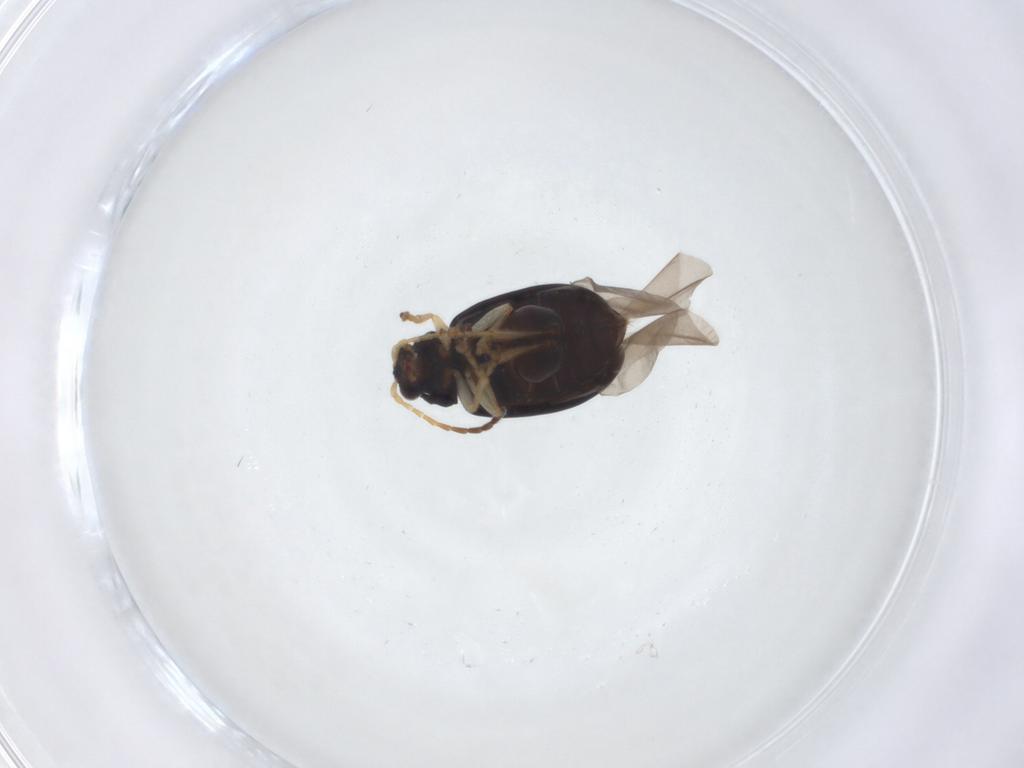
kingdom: Animalia
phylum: Arthropoda
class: Insecta
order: Coleoptera
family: Chrysomelidae
